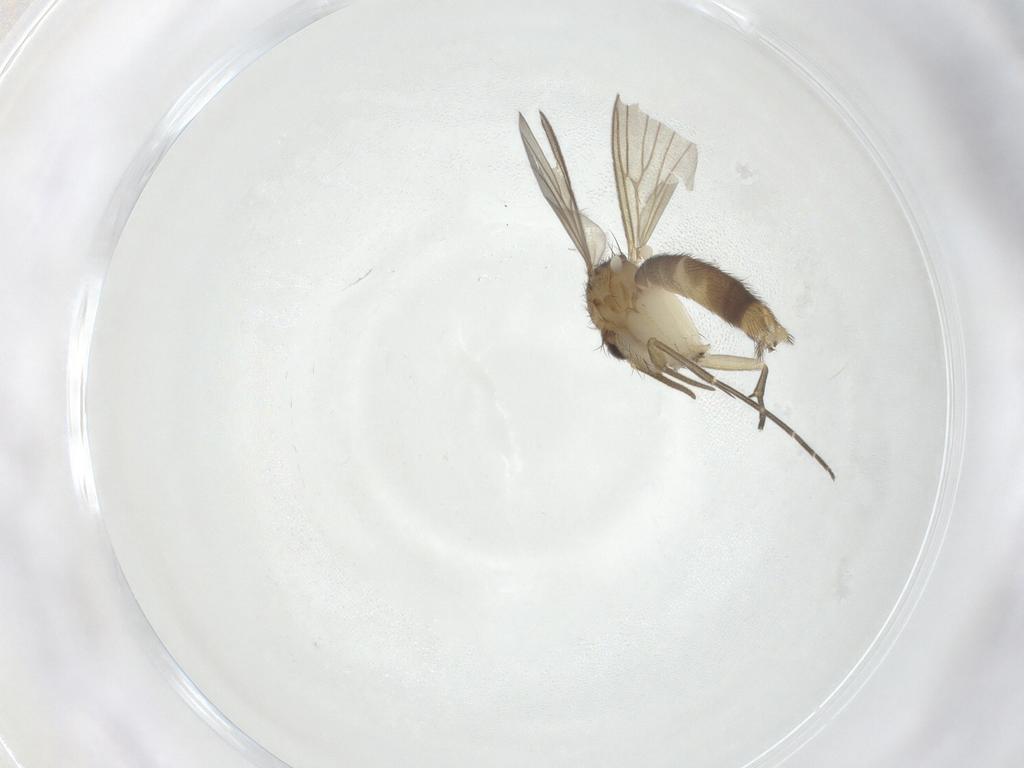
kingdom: Animalia
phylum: Arthropoda
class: Insecta
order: Diptera
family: Mycetophilidae
